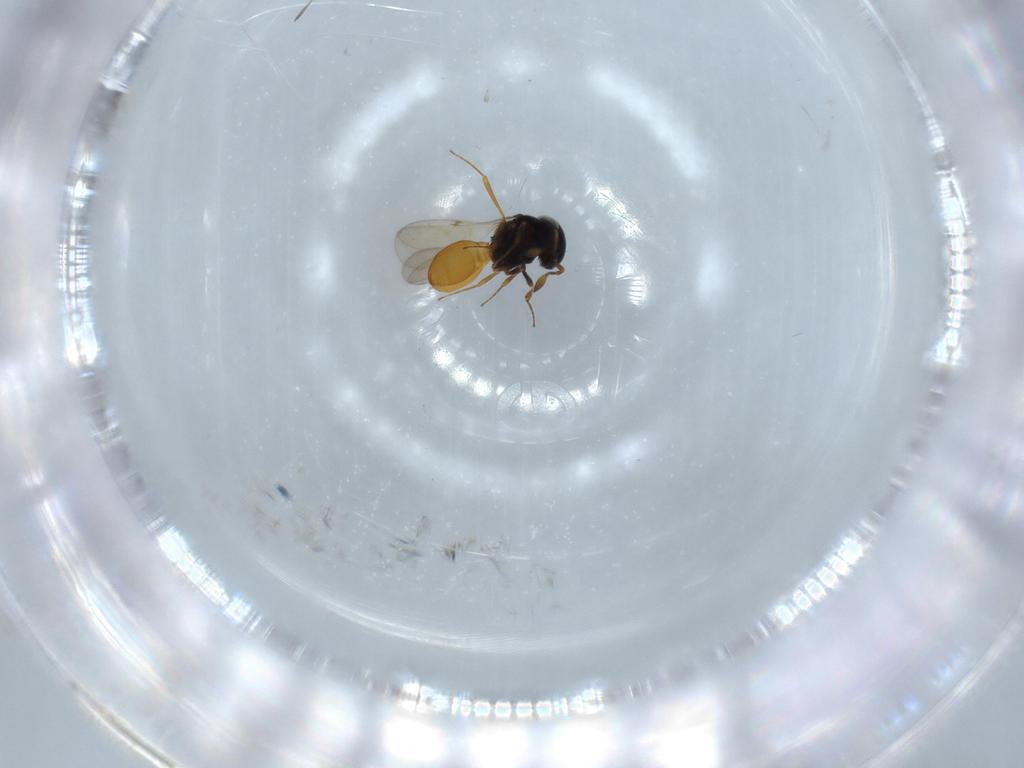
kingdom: Animalia
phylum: Arthropoda
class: Insecta
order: Hymenoptera
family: Scelionidae
